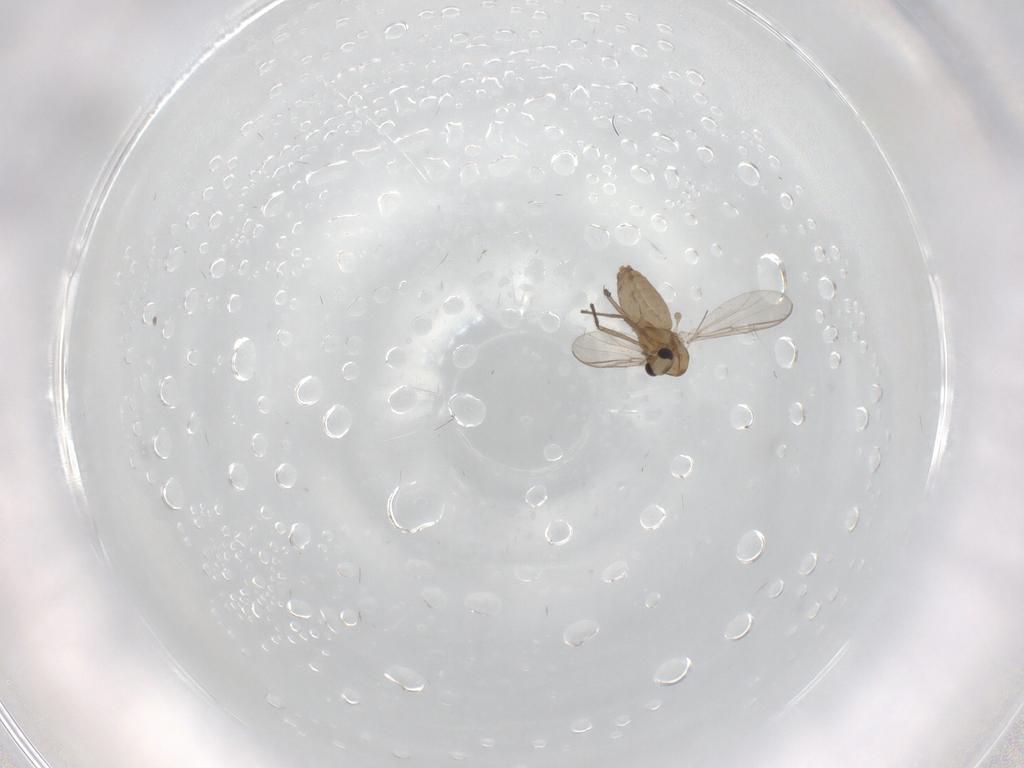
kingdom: Animalia
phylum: Arthropoda
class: Insecta
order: Diptera
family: Chironomidae
